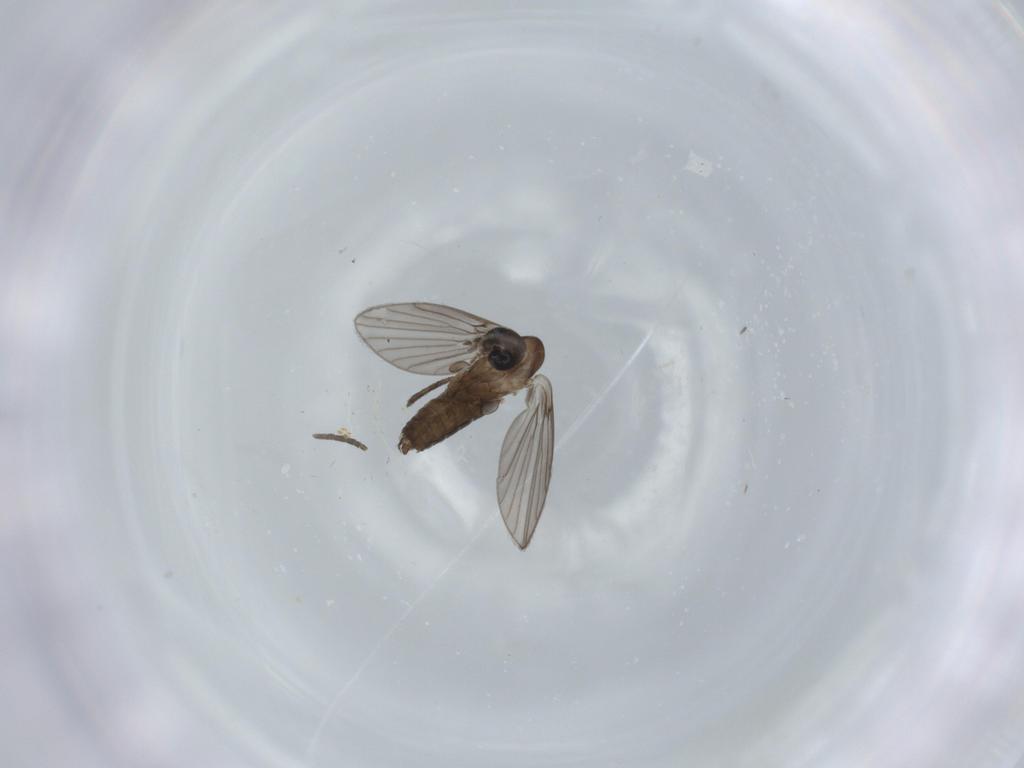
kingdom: Animalia
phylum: Arthropoda
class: Insecta
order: Diptera
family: Psychodidae
